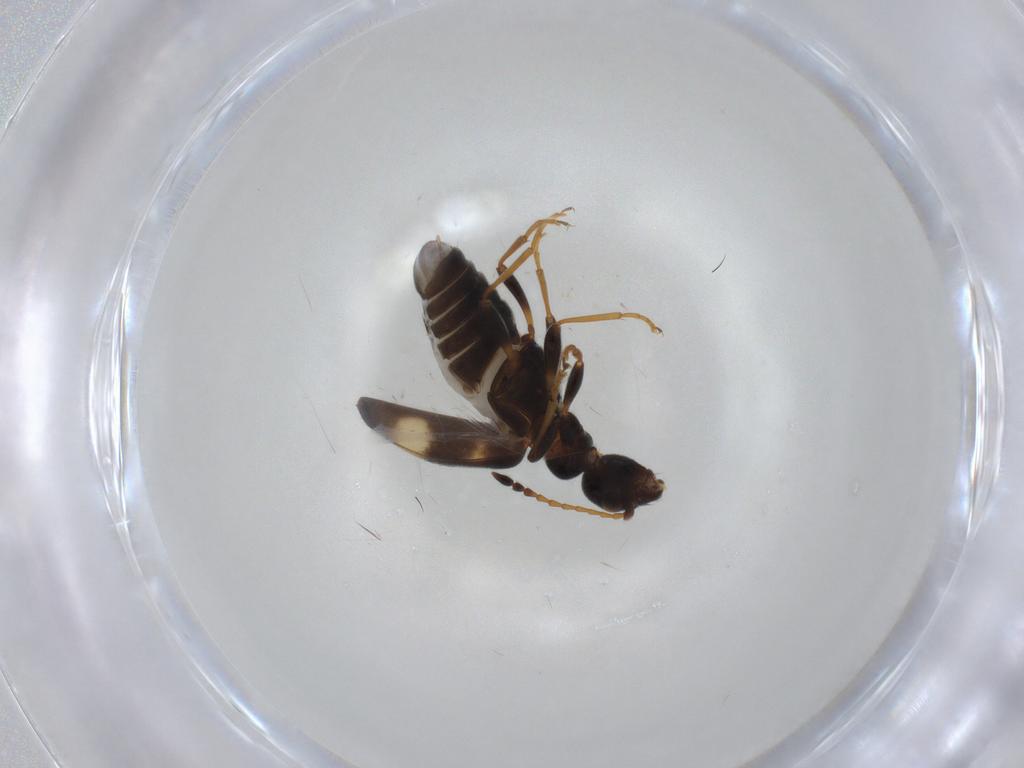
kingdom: Animalia
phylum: Arthropoda
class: Insecta
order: Coleoptera
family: Anthicidae
